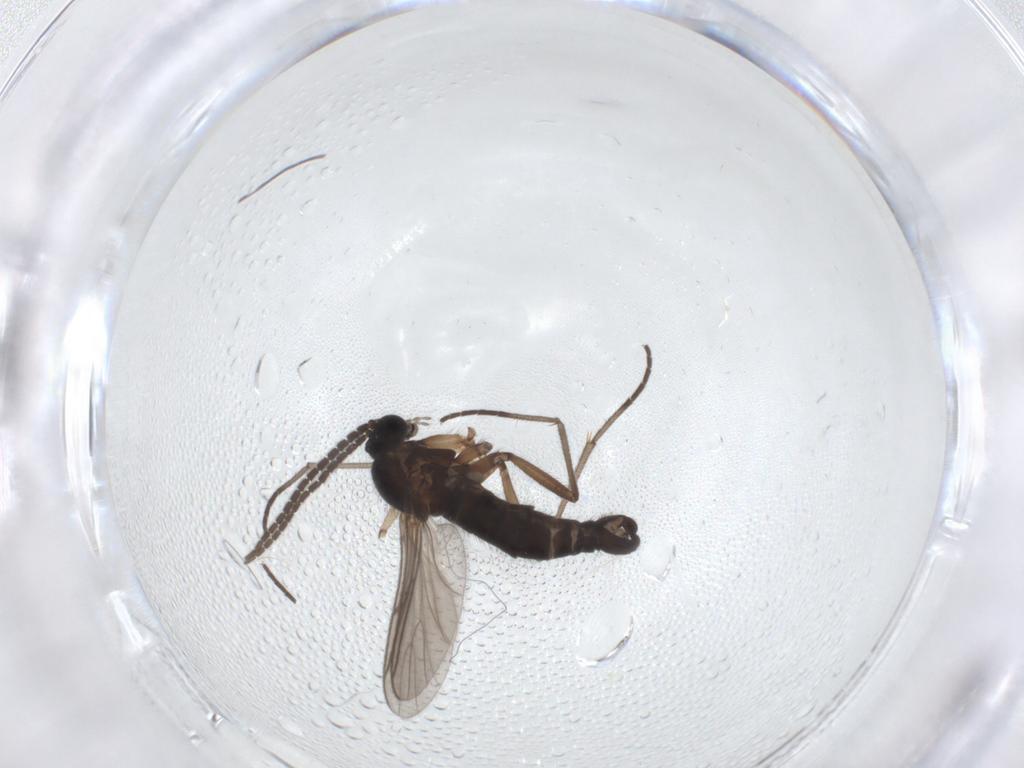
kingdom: Animalia
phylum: Arthropoda
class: Insecta
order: Diptera
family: Sciaridae
